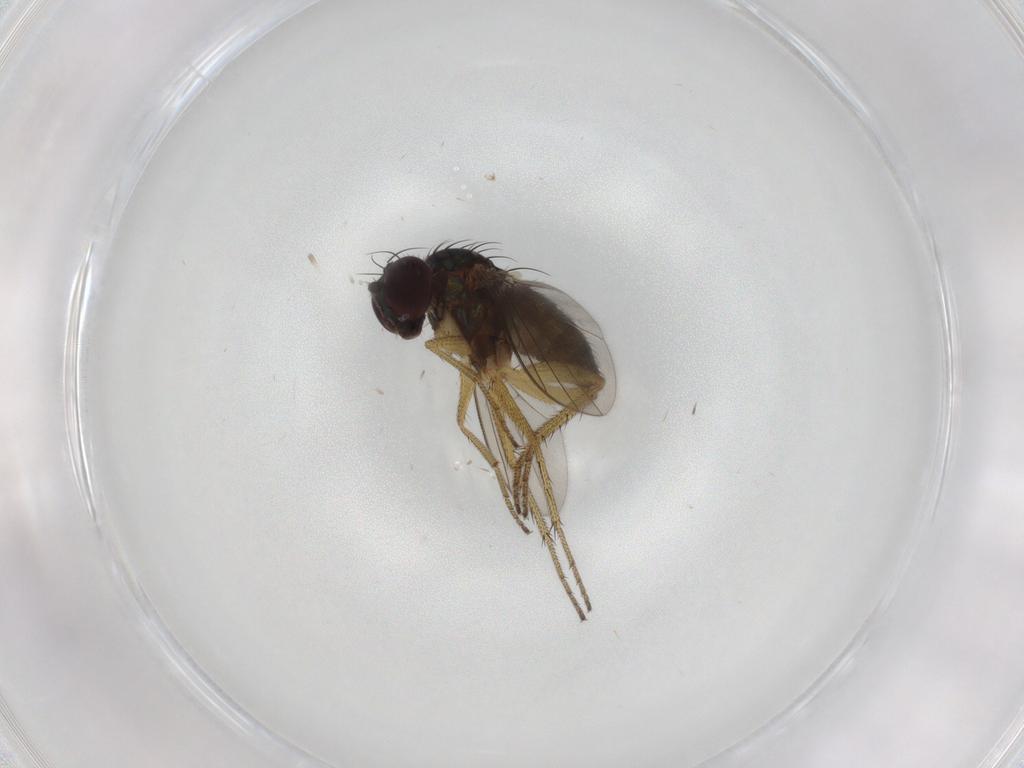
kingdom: Animalia
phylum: Arthropoda
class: Insecta
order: Diptera
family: Dolichopodidae
